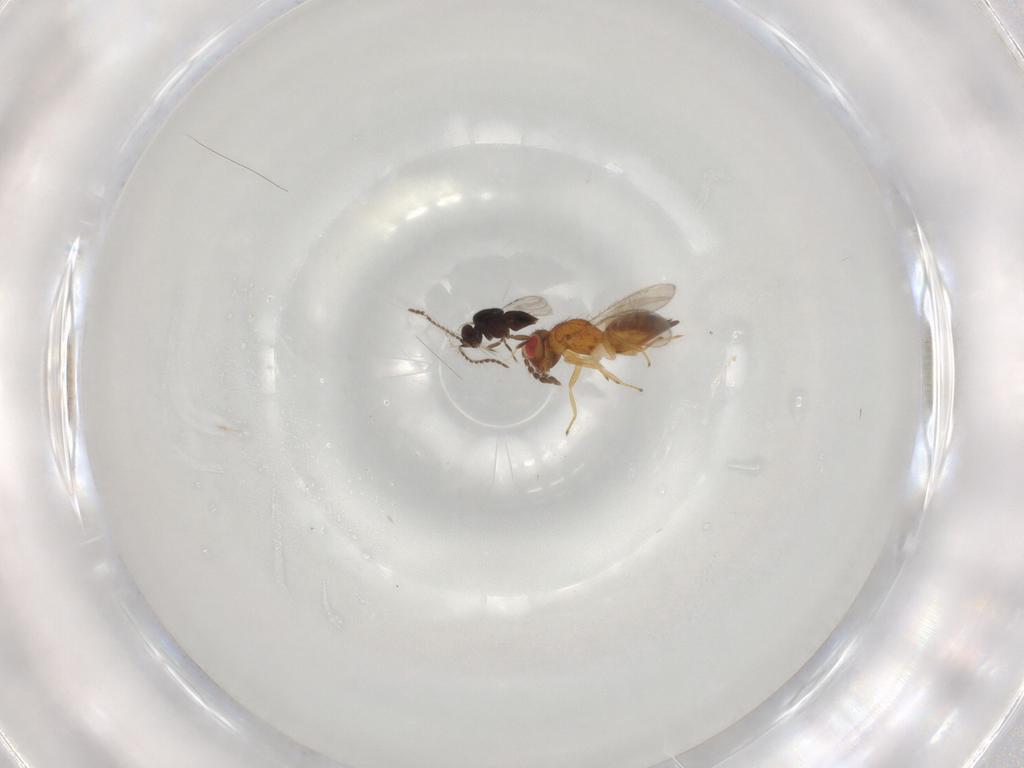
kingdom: Animalia
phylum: Arthropoda
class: Insecta
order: Hymenoptera
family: Eulophidae
